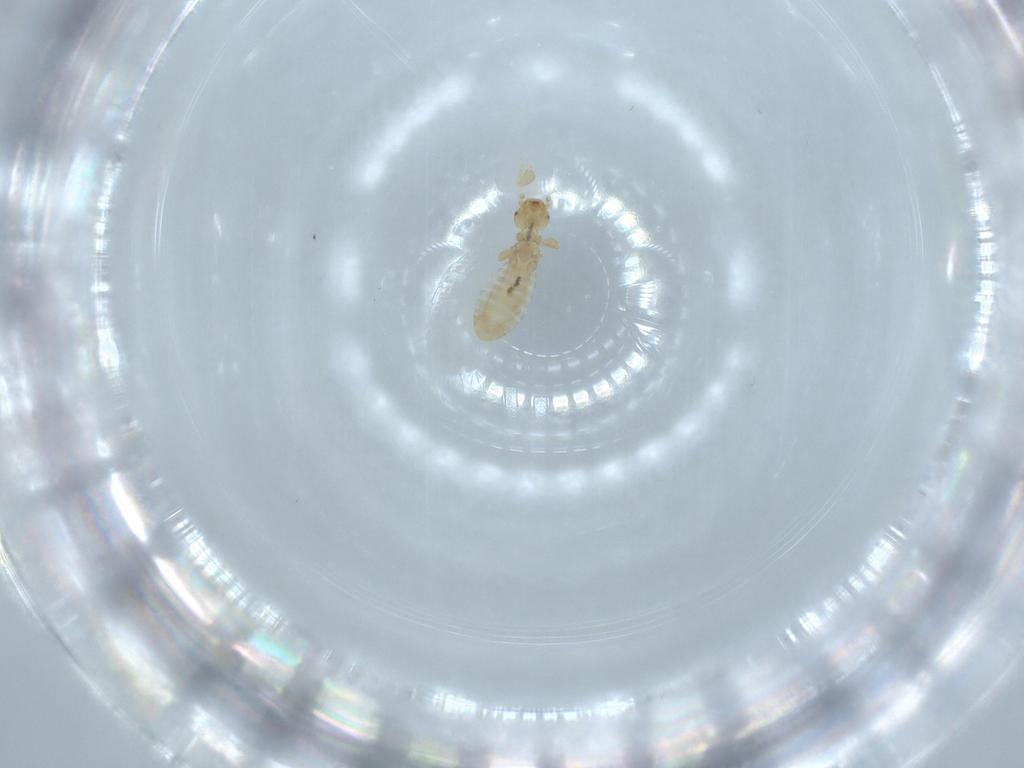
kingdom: Animalia
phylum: Arthropoda
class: Insecta
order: Psocodea
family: Liposcelididae
